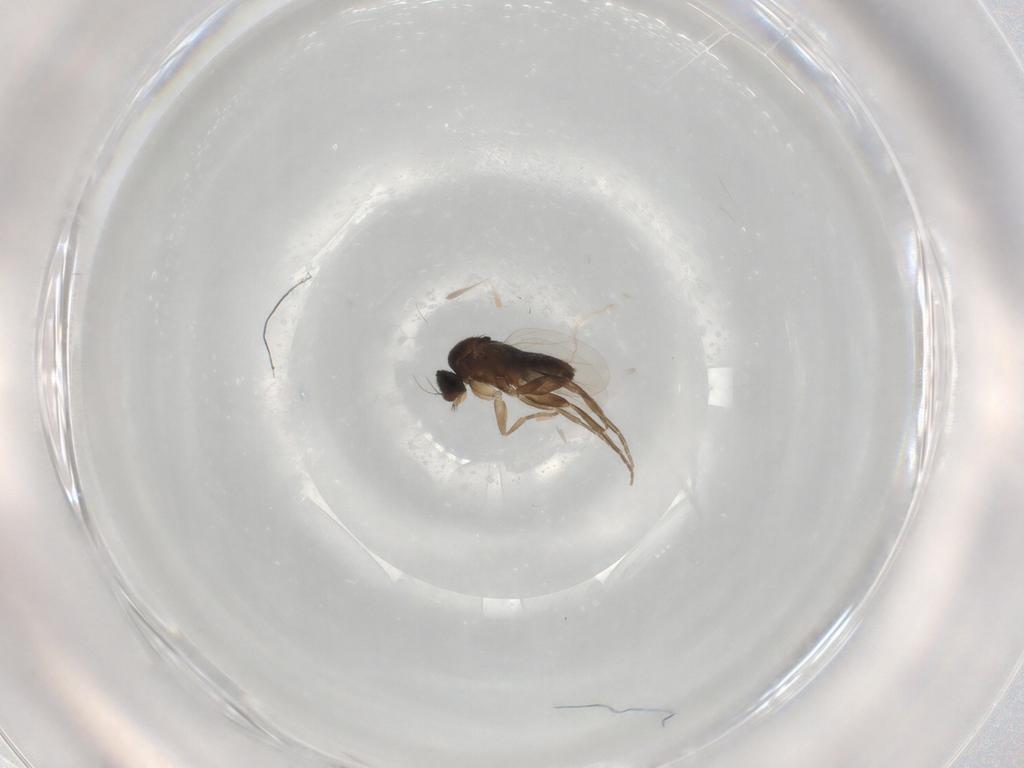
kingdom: Animalia
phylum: Arthropoda
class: Insecta
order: Diptera
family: Phoridae
